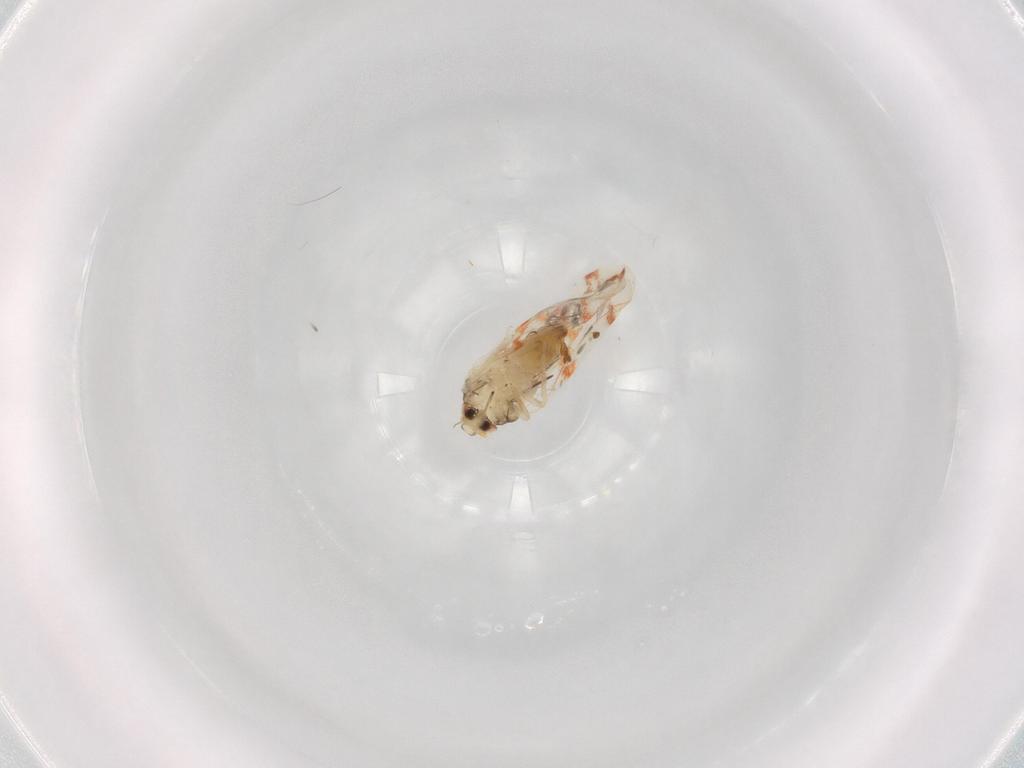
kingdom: Animalia
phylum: Arthropoda
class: Insecta
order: Hemiptera
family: Aleyrodidae
